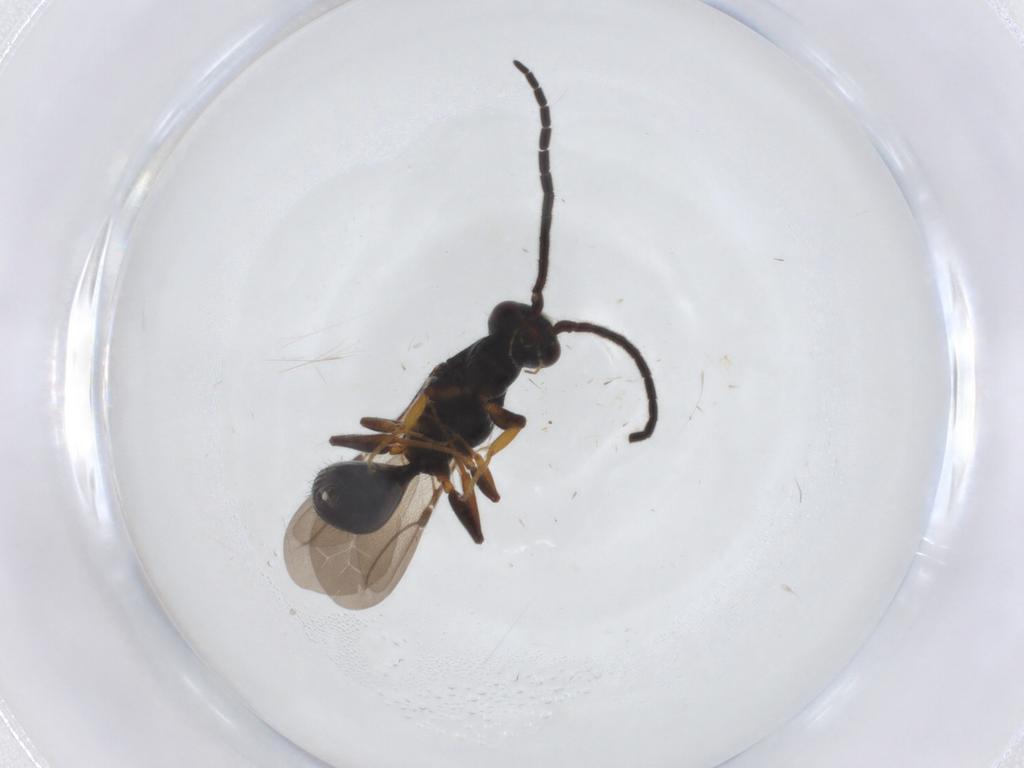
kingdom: Animalia
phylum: Arthropoda
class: Insecta
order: Hymenoptera
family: Bethylidae
